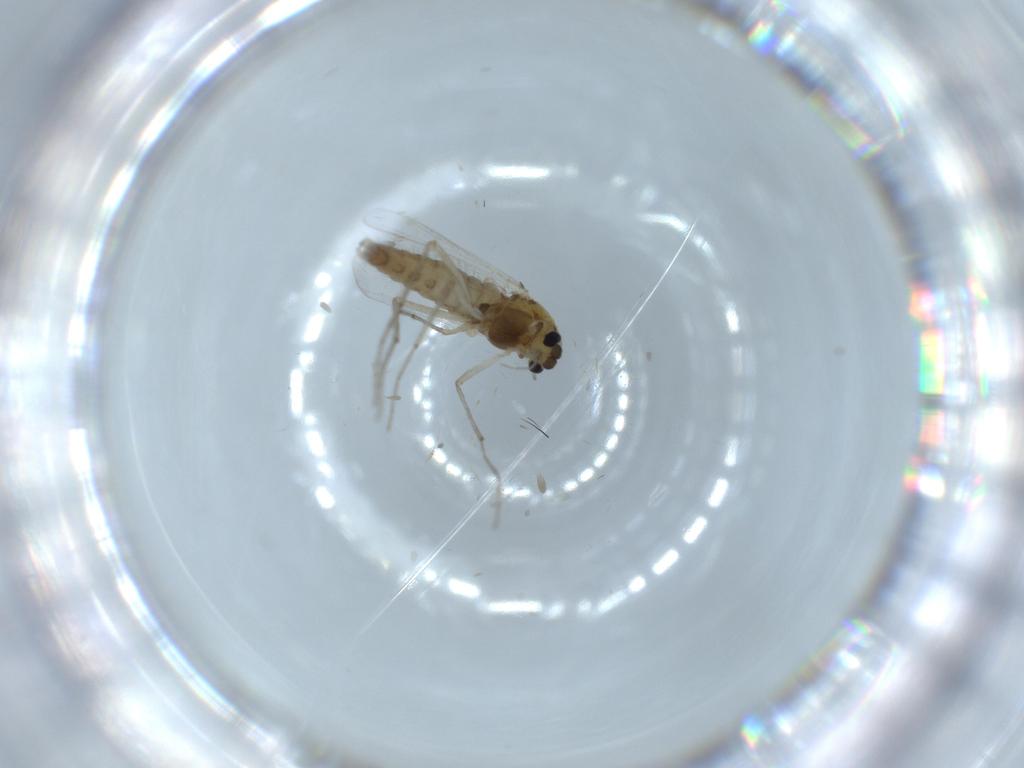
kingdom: Animalia
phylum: Arthropoda
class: Insecta
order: Diptera
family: Chironomidae
